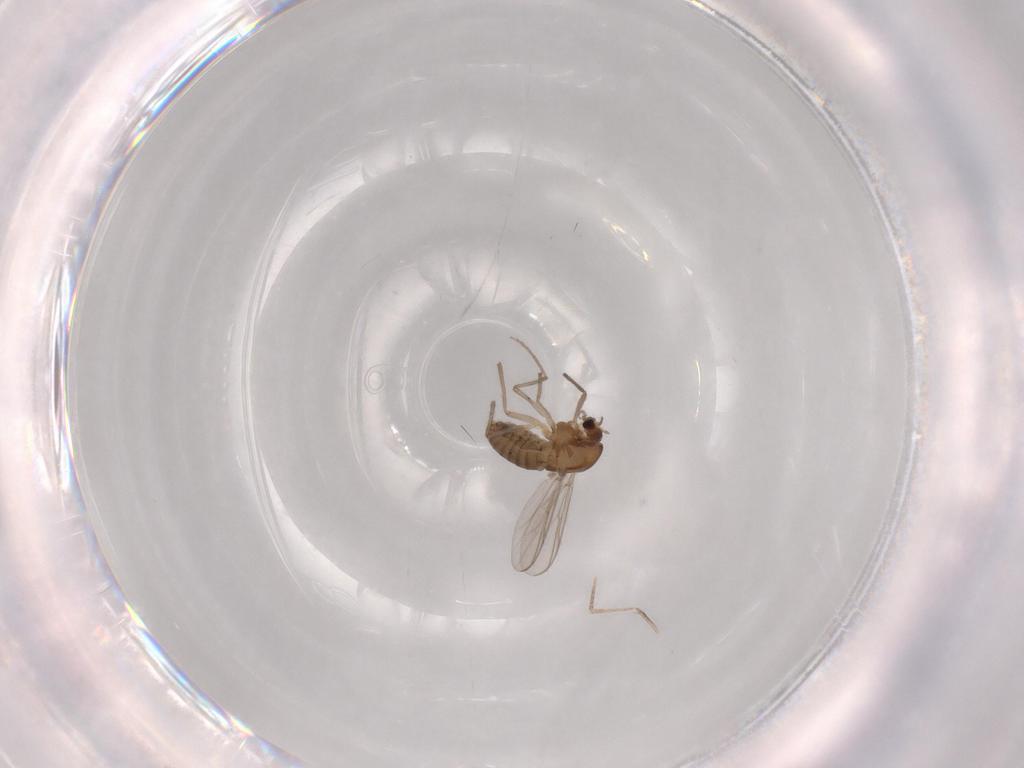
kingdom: Animalia
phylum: Arthropoda
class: Insecta
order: Diptera
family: Chironomidae
